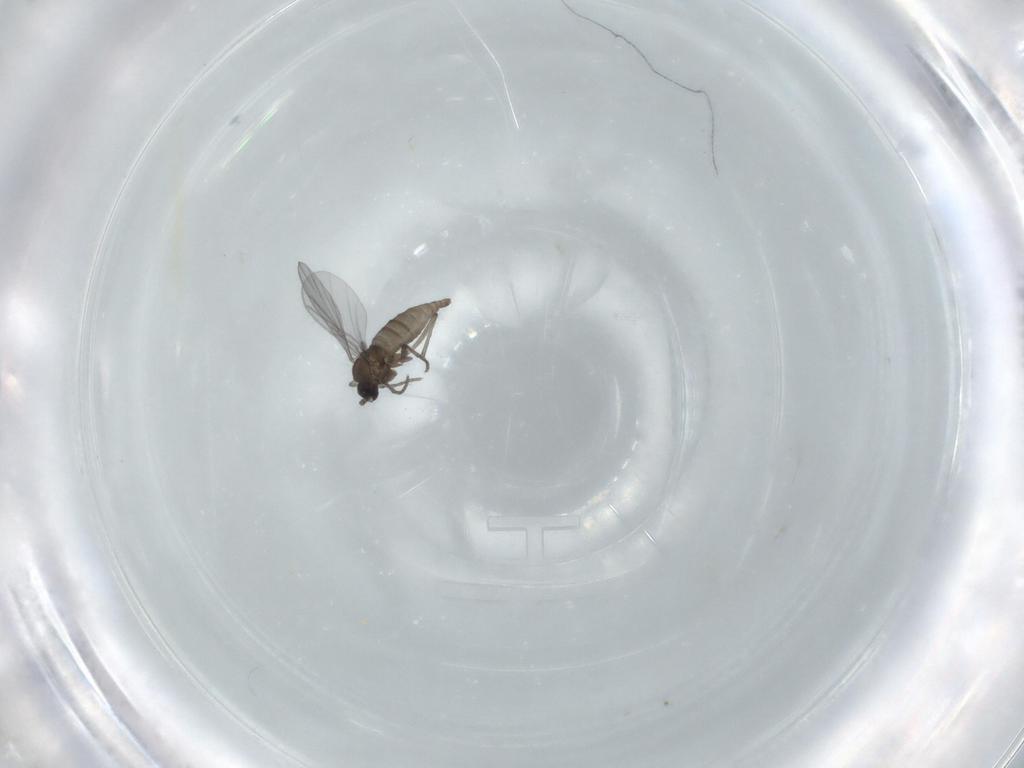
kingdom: Animalia
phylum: Arthropoda
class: Insecta
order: Diptera
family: Sciaridae
